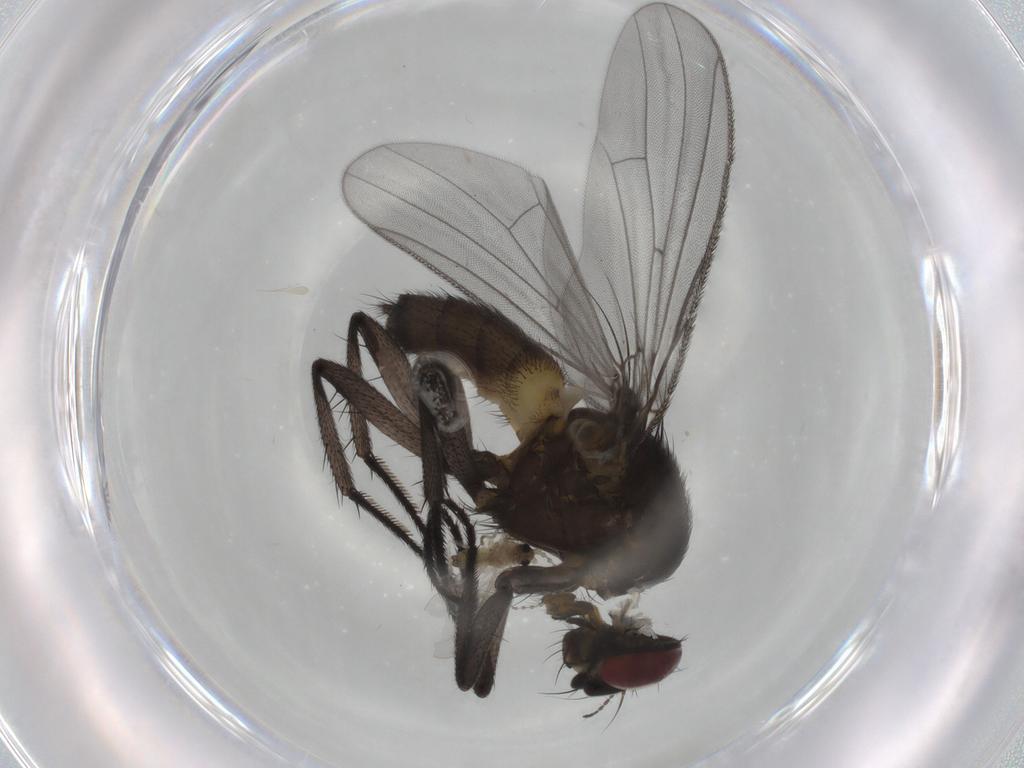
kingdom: Animalia
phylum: Arthropoda
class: Insecta
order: Diptera
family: Fannia
